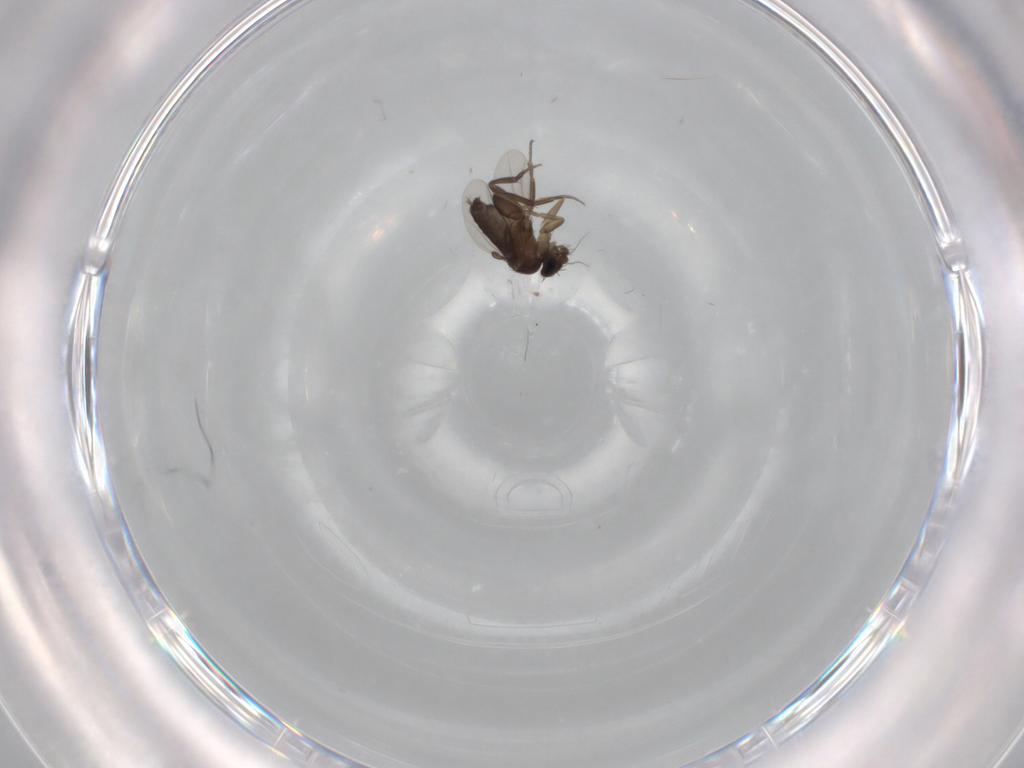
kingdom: Animalia
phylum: Arthropoda
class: Insecta
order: Diptera
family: Phoridae
